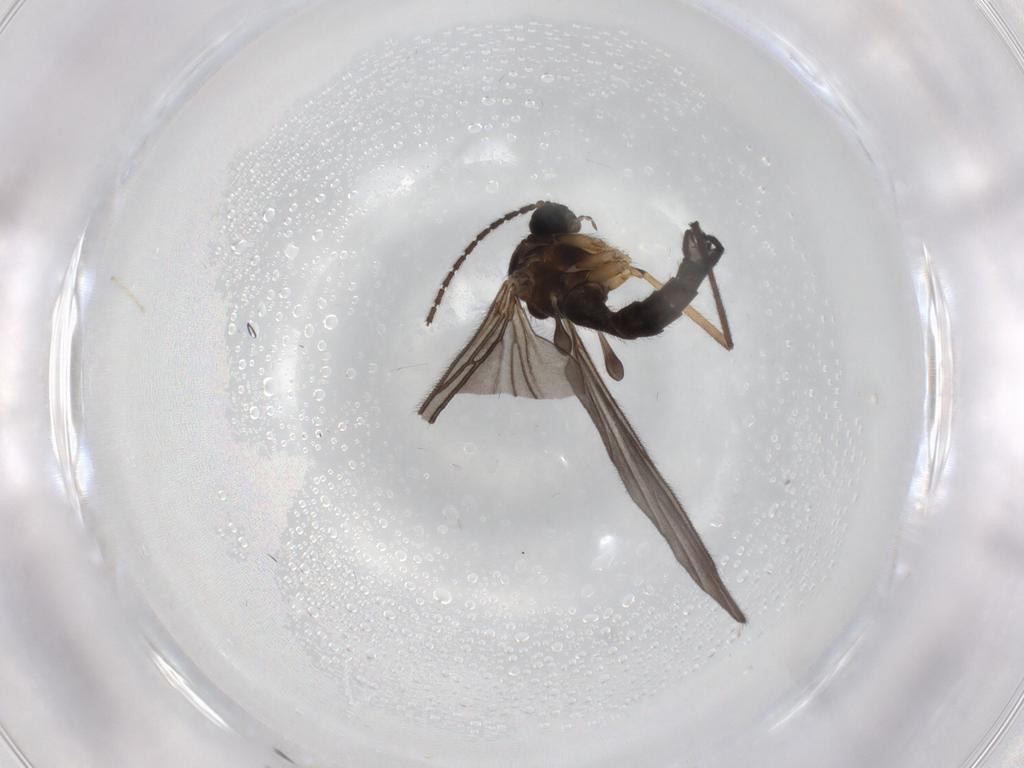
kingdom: Animalia
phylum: Arthropoda
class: Insecta
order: Diptera
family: Sciaridae
